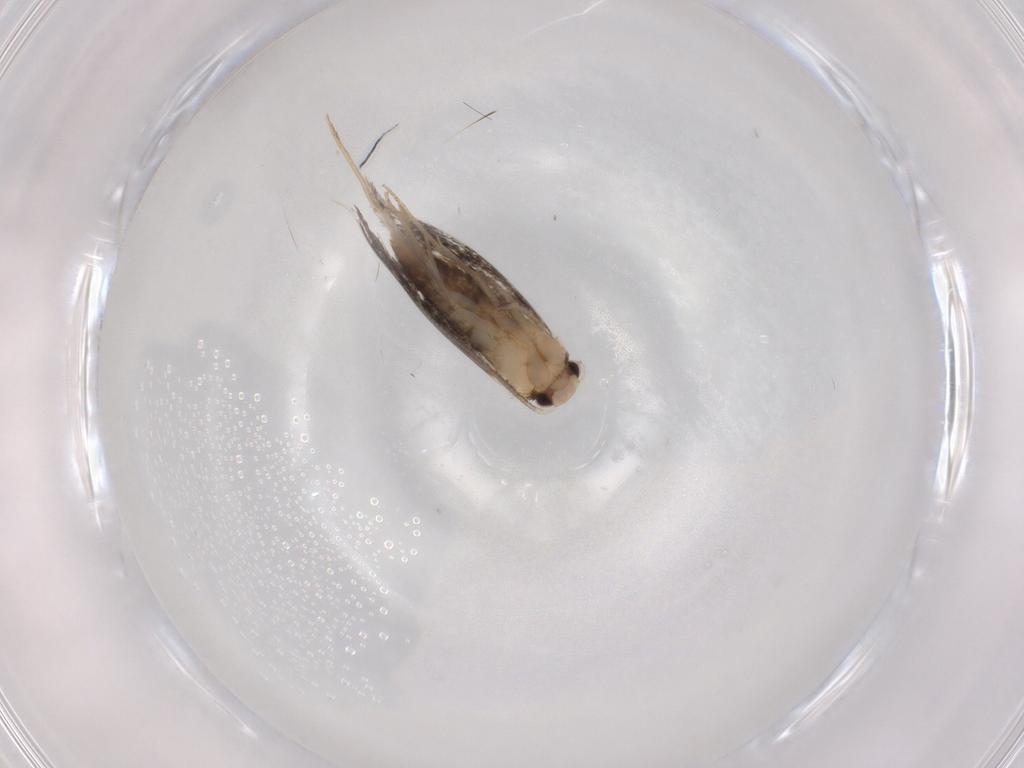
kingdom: Animalia
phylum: Arthropoda
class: Insecta
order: Lepidoptera
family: Tineidae
